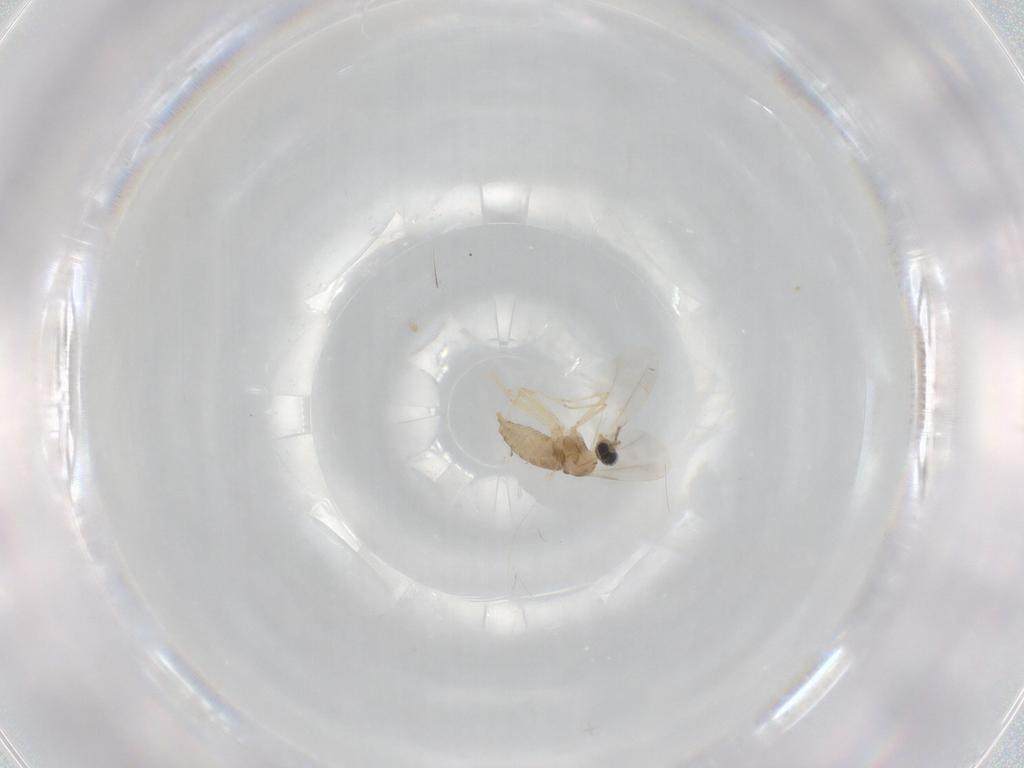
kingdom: Animalia
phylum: Arthropoda
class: Insecta
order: Diptera
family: Cecidomyiidae
